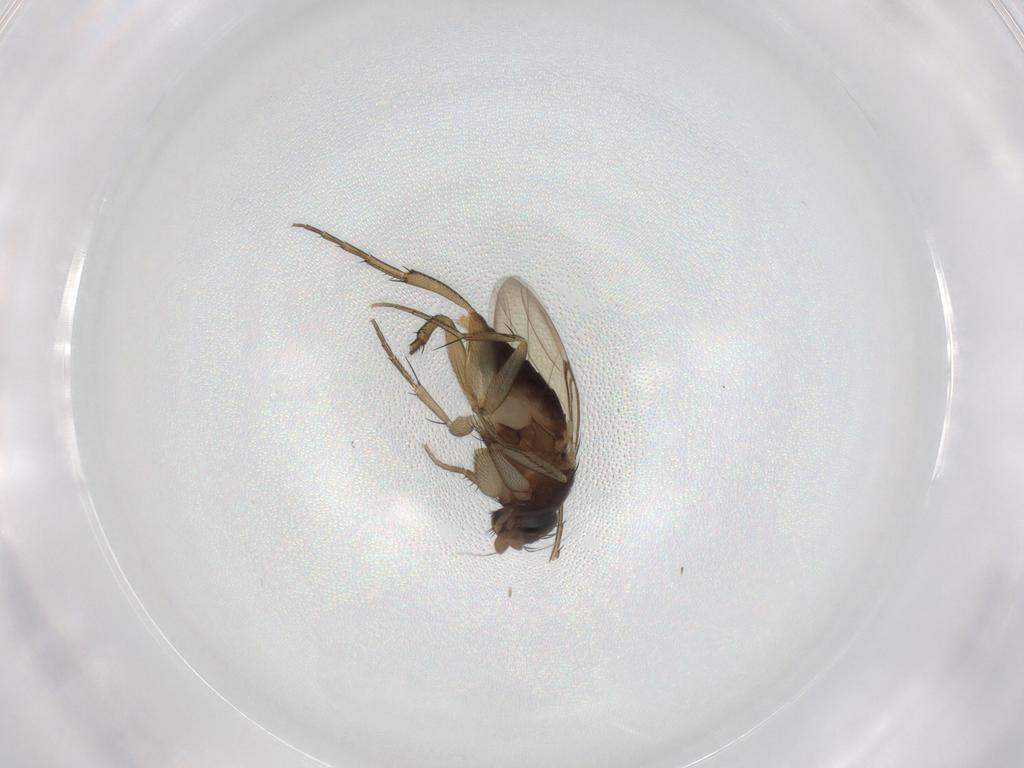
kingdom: Animalia
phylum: Arthropoda
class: Insecta
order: Diptera
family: Phoridae
